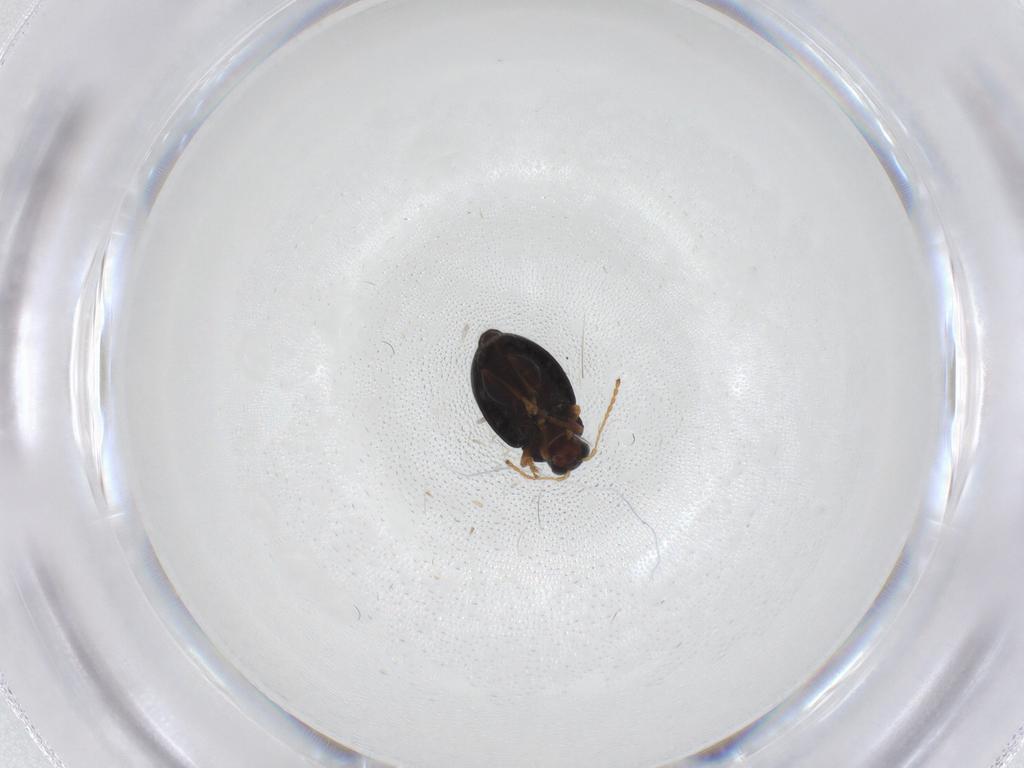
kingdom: Animalia
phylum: Arthropoda
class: Insecta
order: Coleoptera
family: Chrysomelidae
